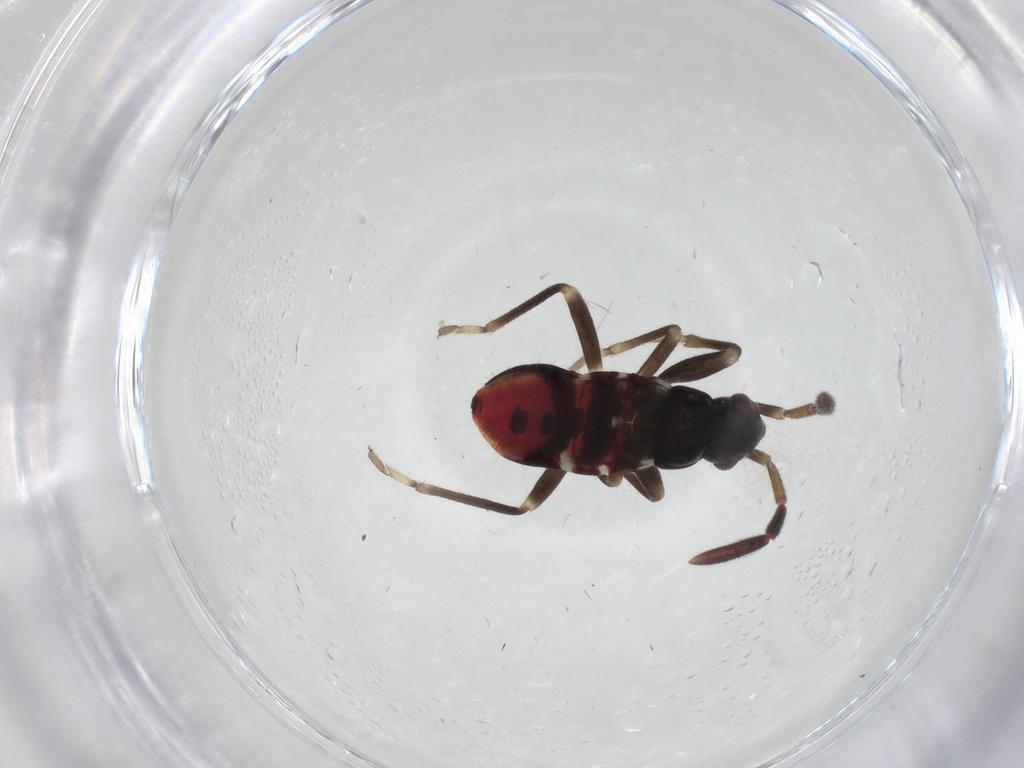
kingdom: Animalia
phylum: Arthropoda
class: Insecta
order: Hemiptera
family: Rhyparochromidae
